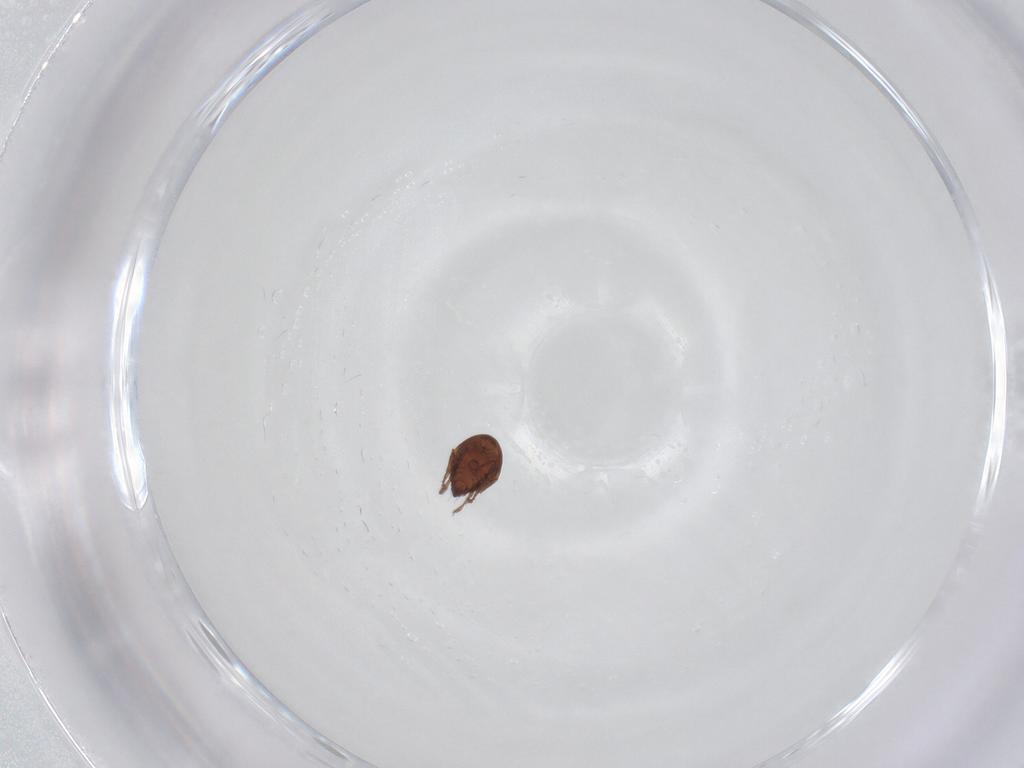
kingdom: Animalia
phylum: Arthropoda
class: Arachnida
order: Sarcoptiformes
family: Ceratozetidae
